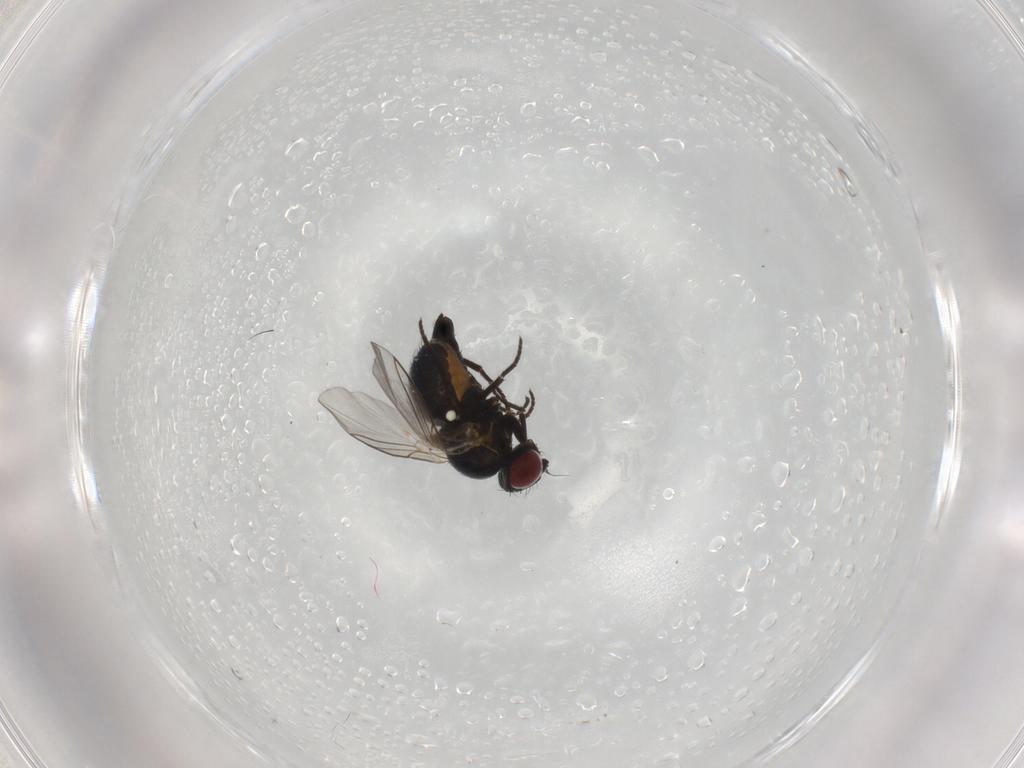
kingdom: Animalia
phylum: Arthropoda
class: Insecta
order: Diptera
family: Agromyzidae
